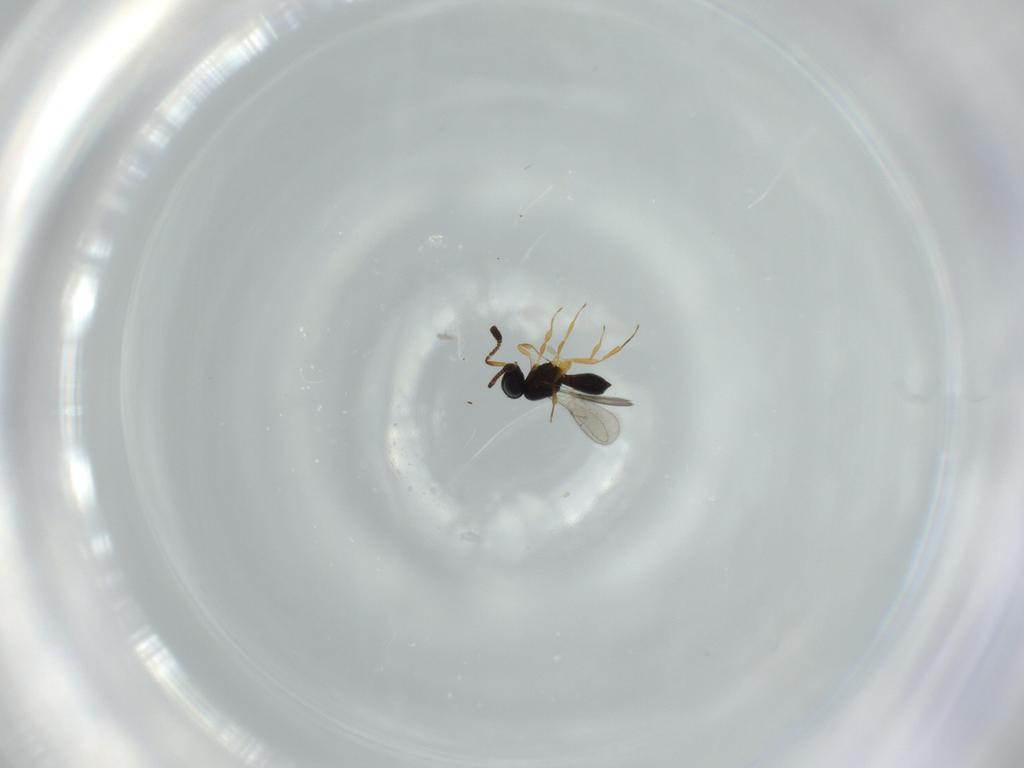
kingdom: Animalia
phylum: Arthropoda
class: Insecta
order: Hymenoptera
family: Scelionidae
